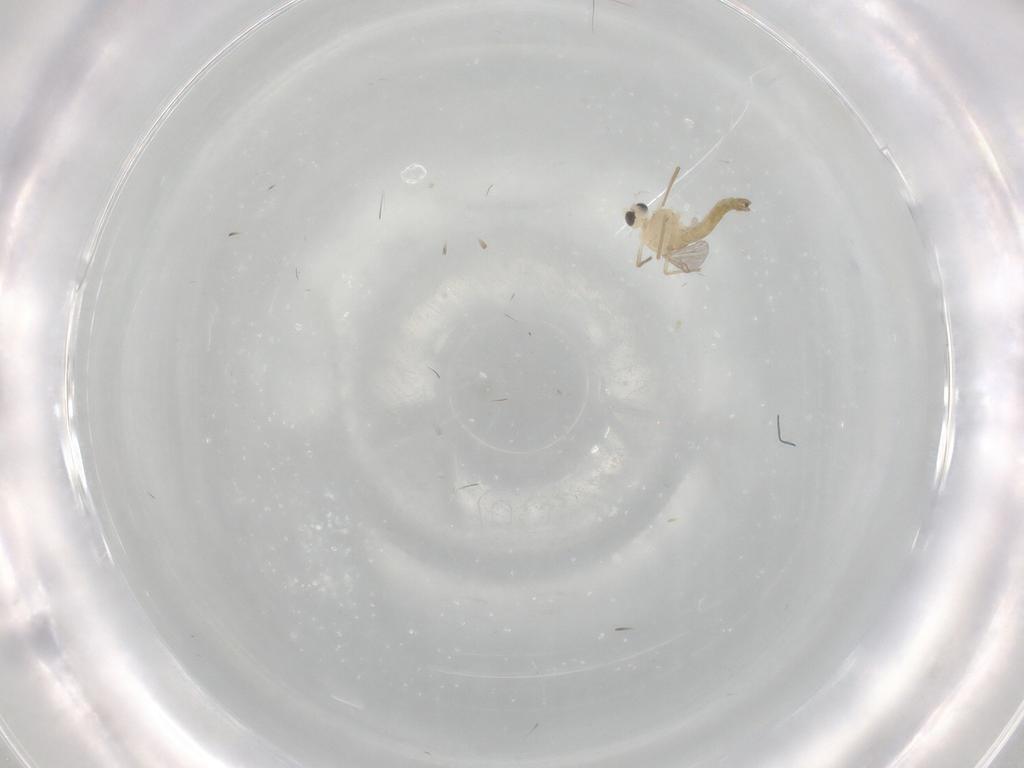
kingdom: Animalia
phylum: Arthropoda
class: Insecta
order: Diptera
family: Chironomidae
